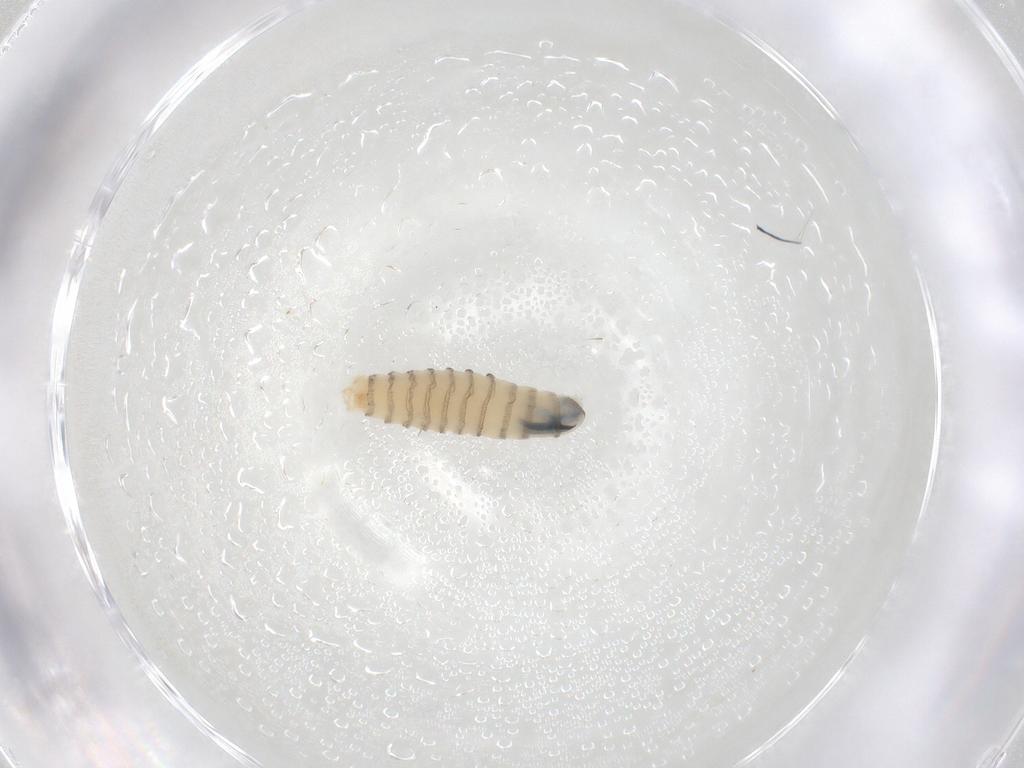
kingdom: Animalia
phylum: Arthropoda
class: Insecta
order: Diptera
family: Sarcophagidae
